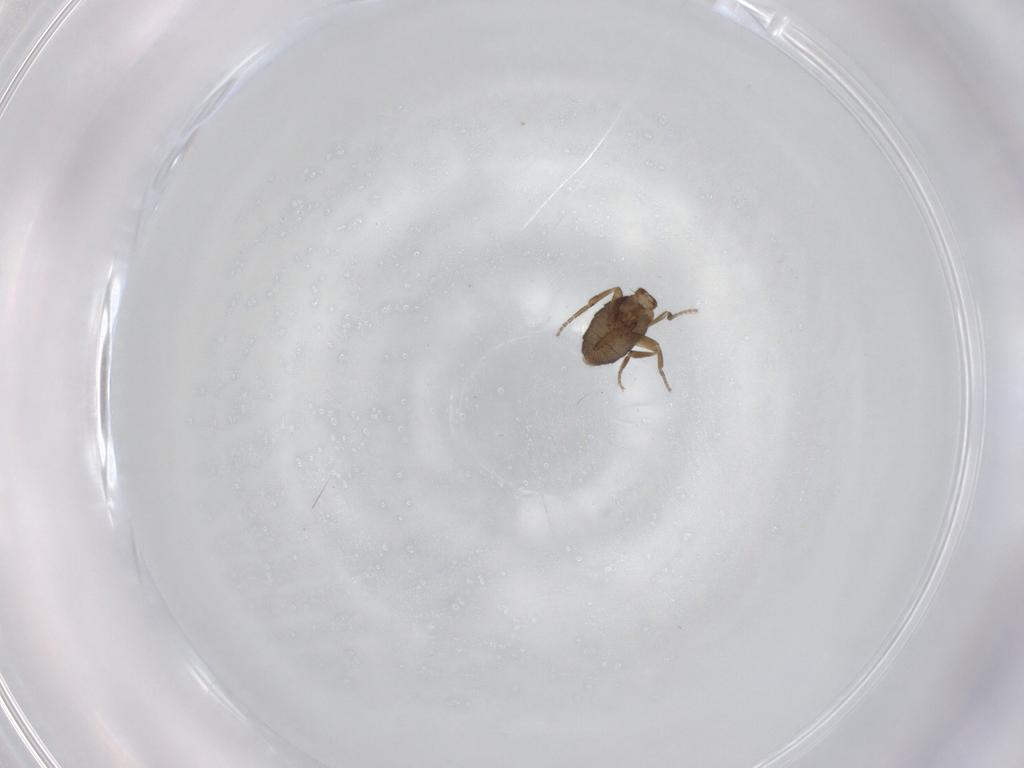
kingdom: Animalia
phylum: Arthropoda
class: Insecta
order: Diptera
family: Phoridae
